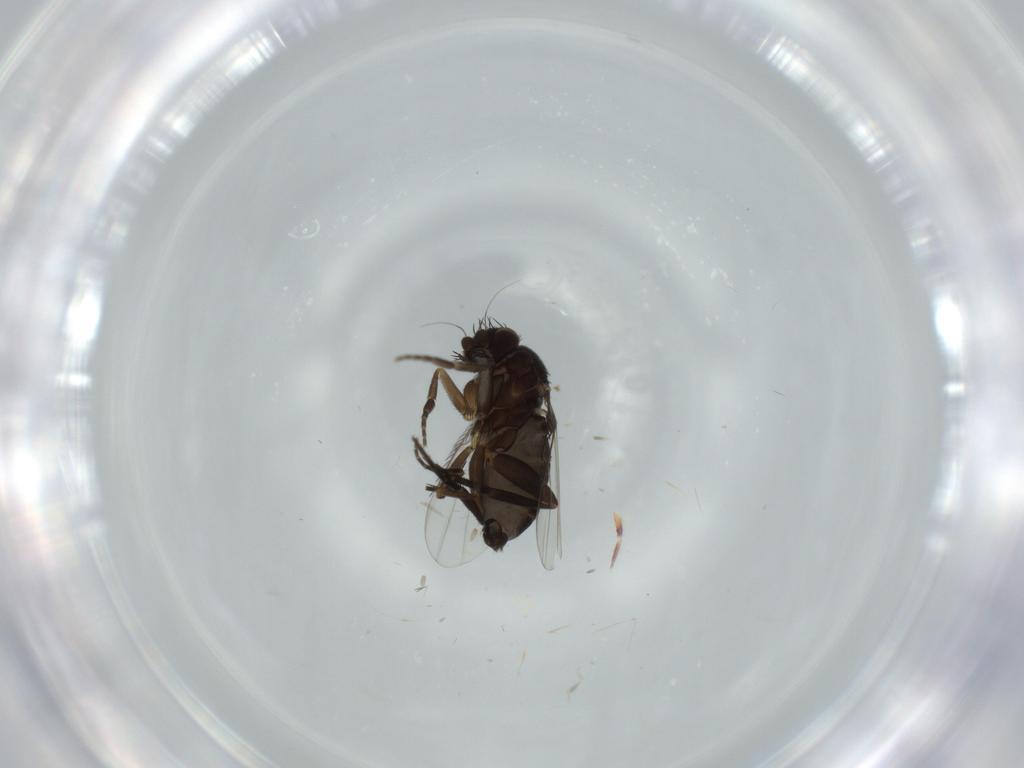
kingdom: Animalia
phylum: Arthropoda
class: Insecta
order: Diptera
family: Phoridae
